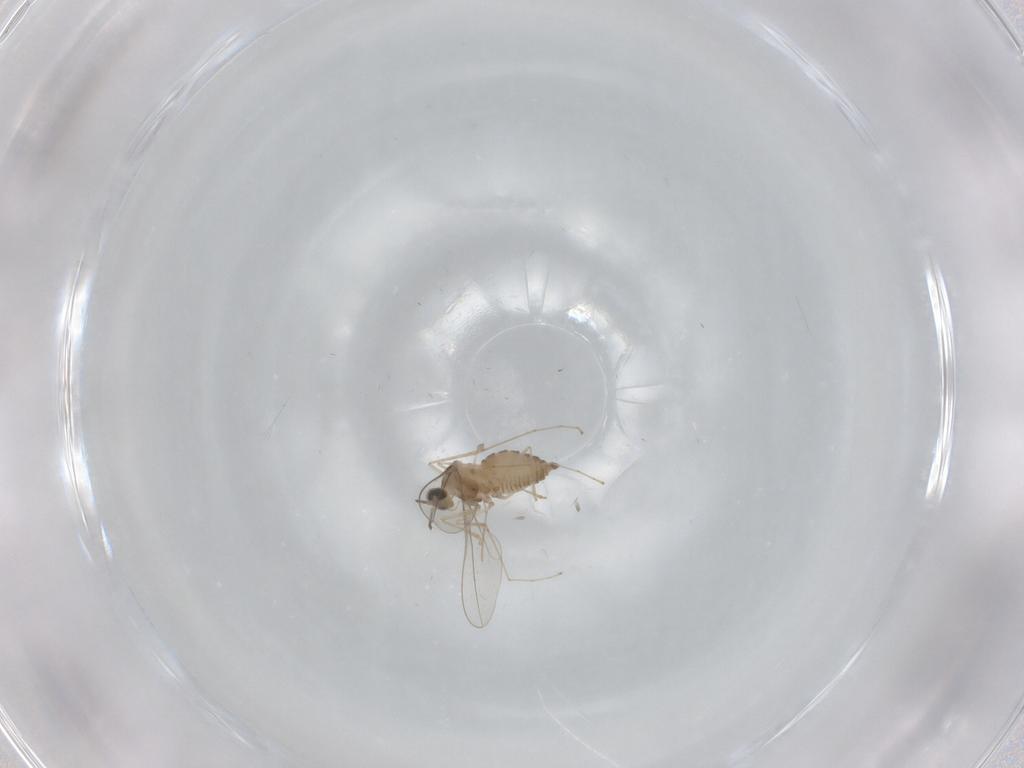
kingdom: Animalia
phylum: Arthropoda
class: Insecta
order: Diptera
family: Cecidomyiidae
